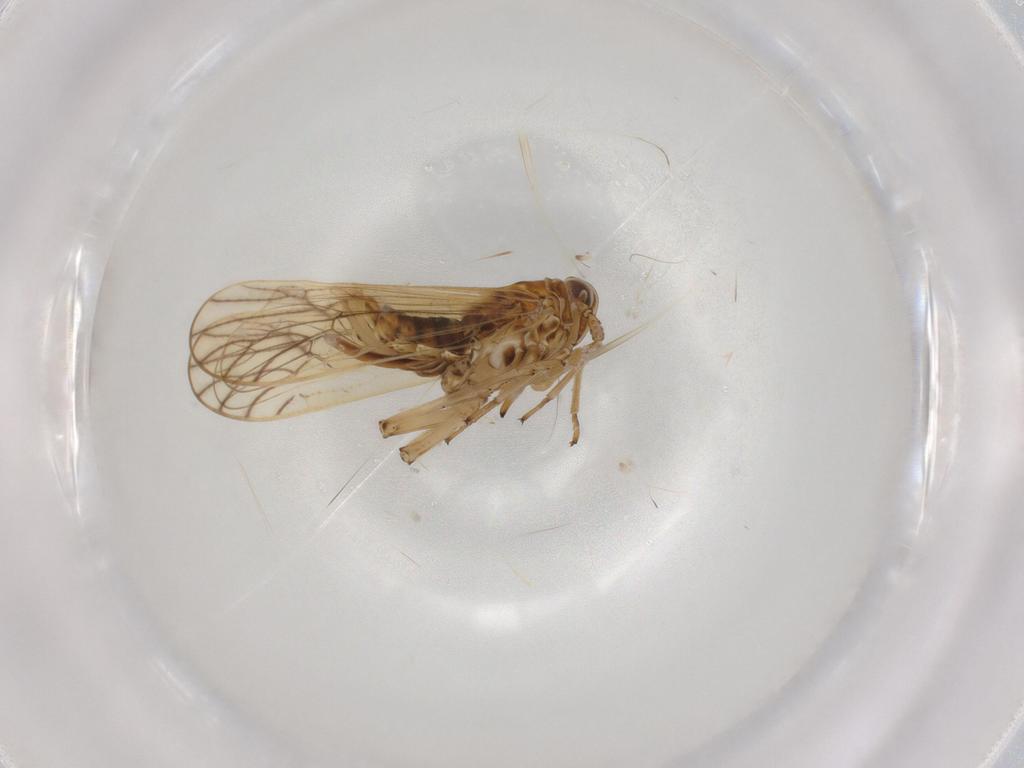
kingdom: Animalia
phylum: Arthropoda
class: Insecta
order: Hemiptera
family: Delphacidae
